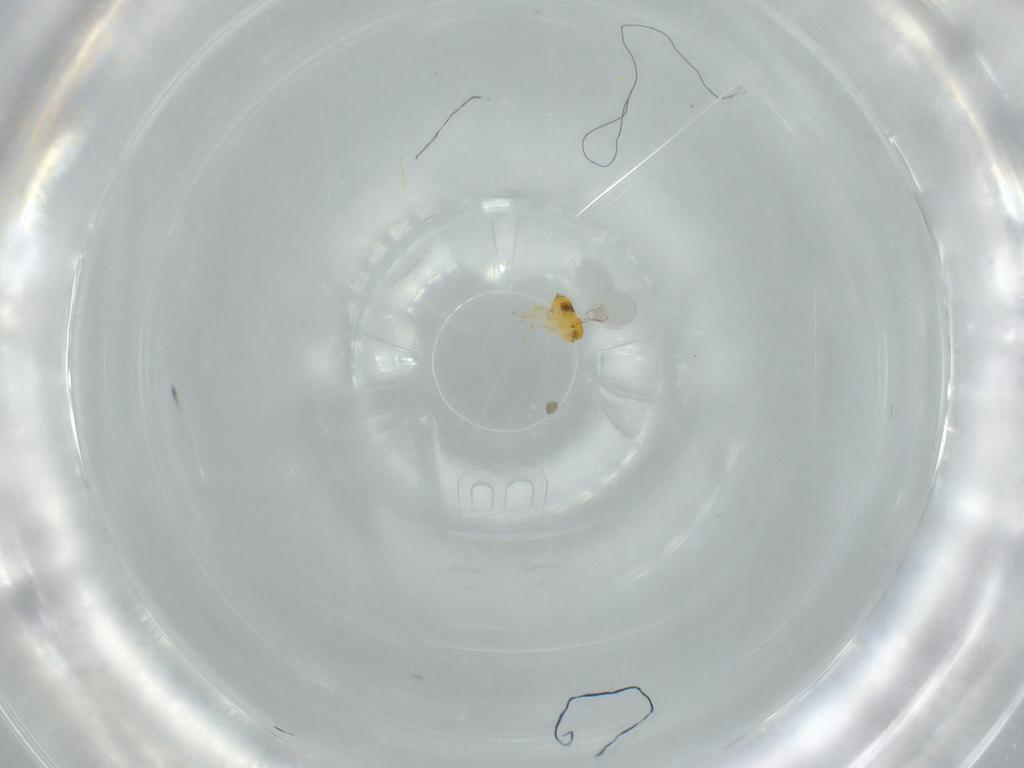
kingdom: Animalia
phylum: Arthropoda
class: Insecta
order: Hymenoptera
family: Trichogrammatidae
